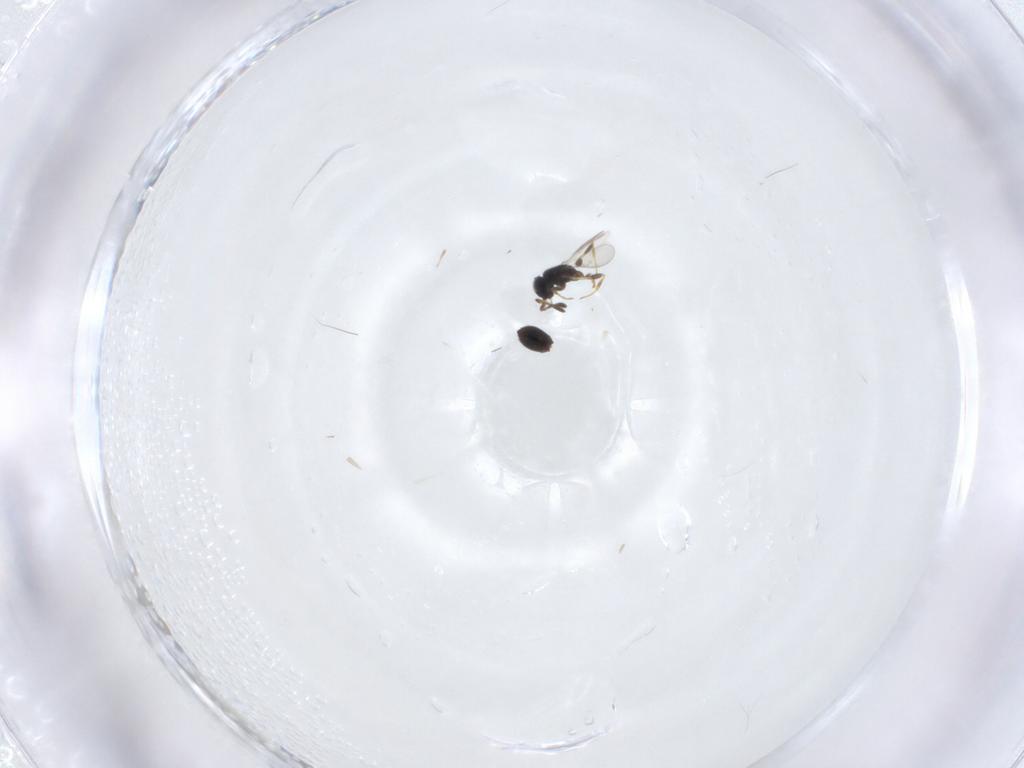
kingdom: Animalia
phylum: Arthropoda
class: Insecta
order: Hymenoptera
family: Scelionidae
